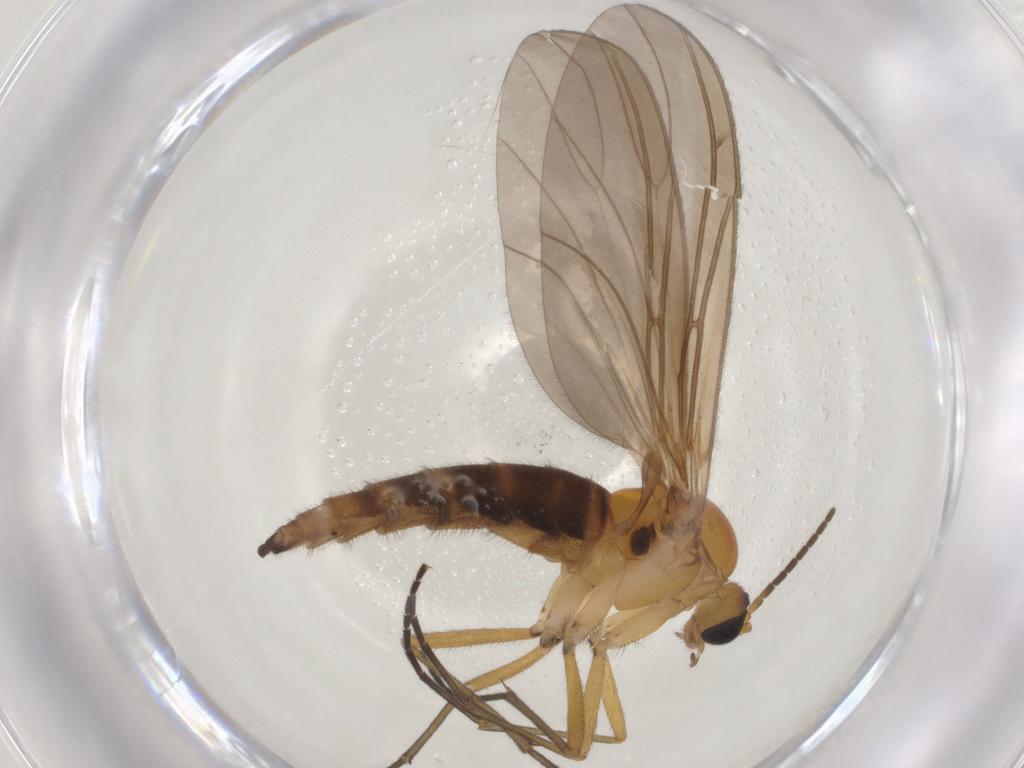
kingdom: Animalia
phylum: Arthropoda
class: Insecta
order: Diptera
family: Sciaridae
